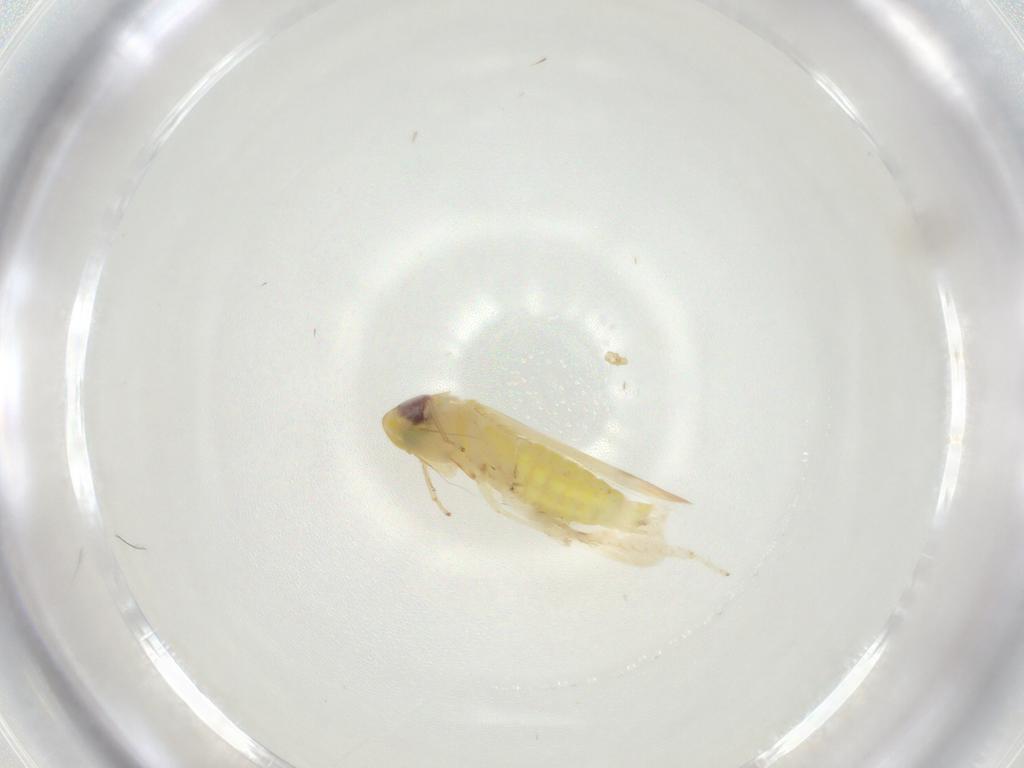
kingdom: Animalia
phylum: Arthropoda
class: Insecta
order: Hemiptera
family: Cicadellidae
